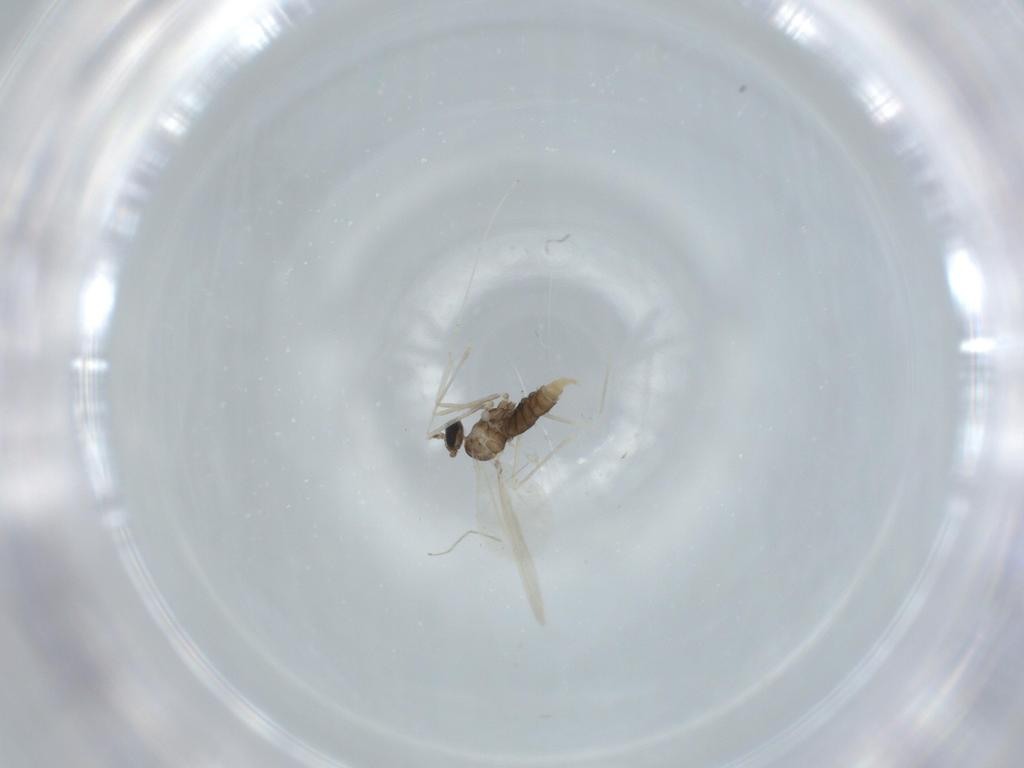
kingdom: Animalia
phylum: Arthropoda
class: Insecta
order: Diptera
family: Cecidomyiidae
